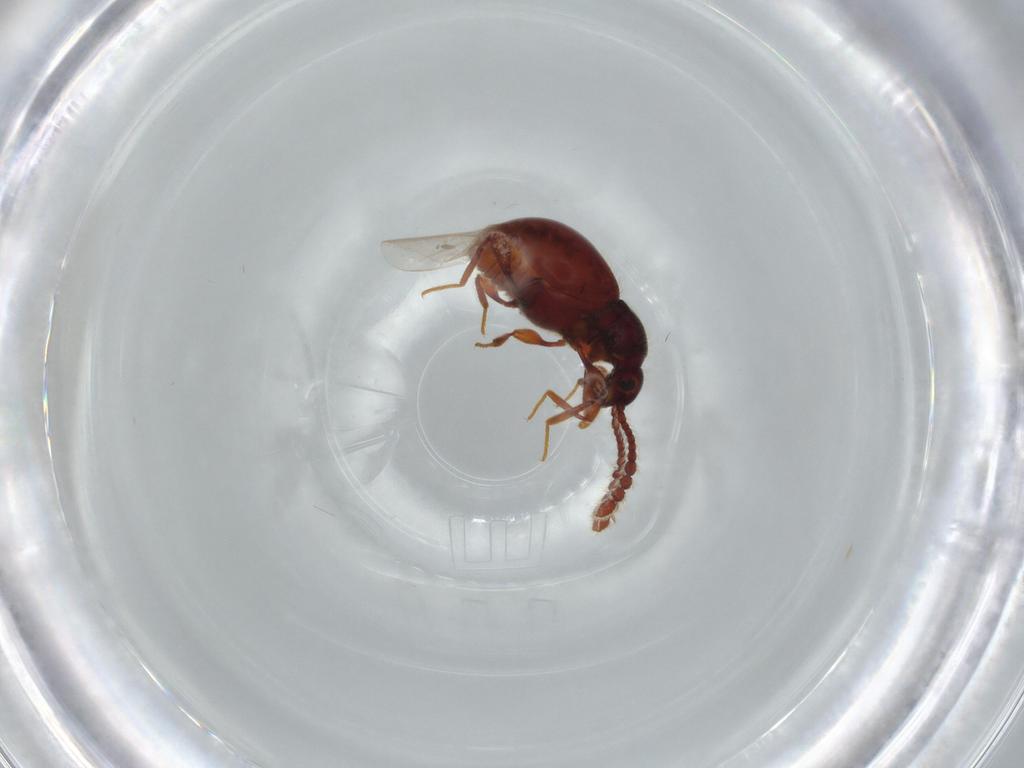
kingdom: Animalia
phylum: Arthropoda
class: Insecta
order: Coleoptera
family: Staphylinidae
